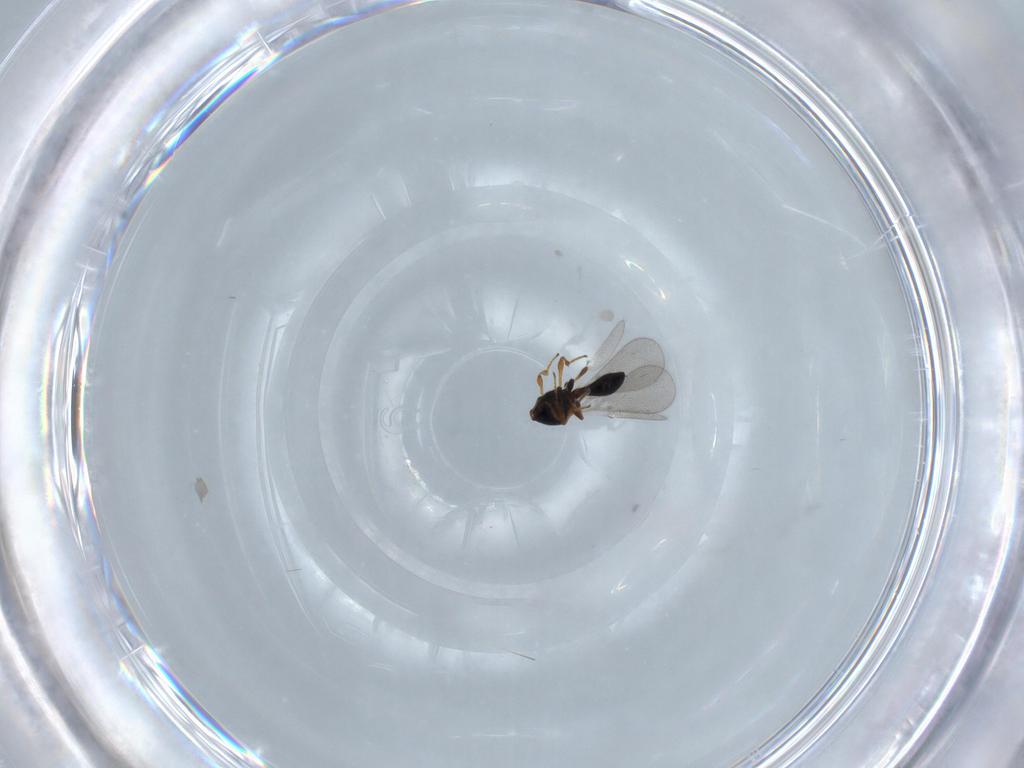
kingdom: Animalia
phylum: Arthropoda
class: Insecta
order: Hymenoptera
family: Platygastridae
